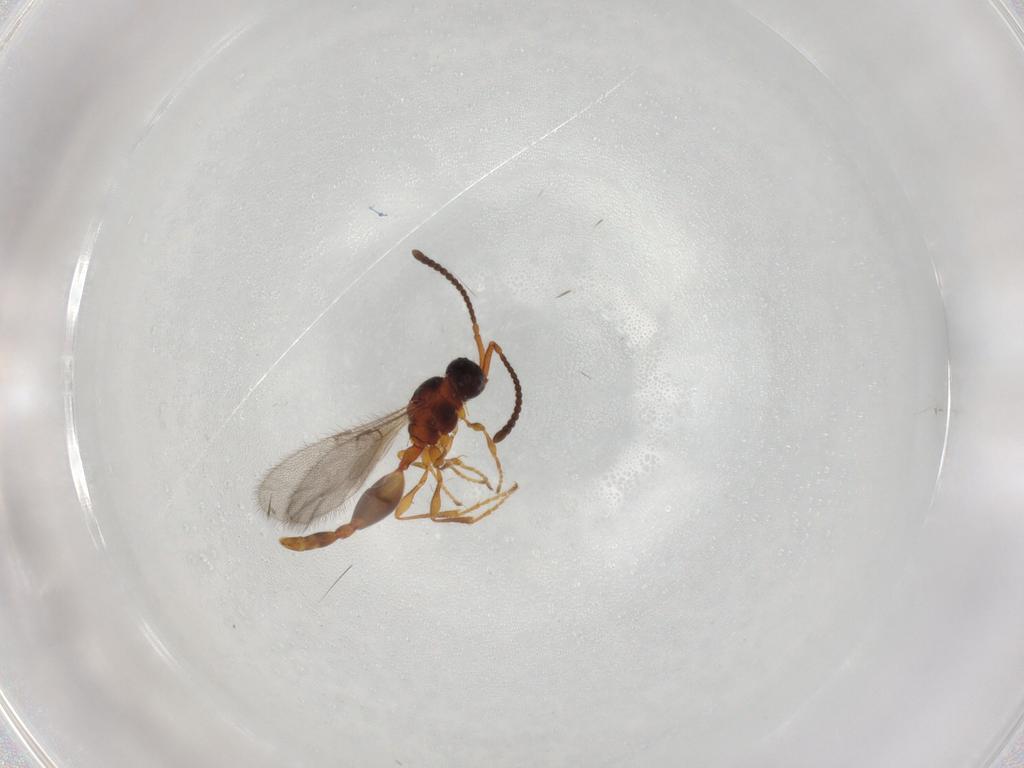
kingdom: Animalia
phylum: Arthropoda
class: Insecta
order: Hymenoptera
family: Diapriidae
